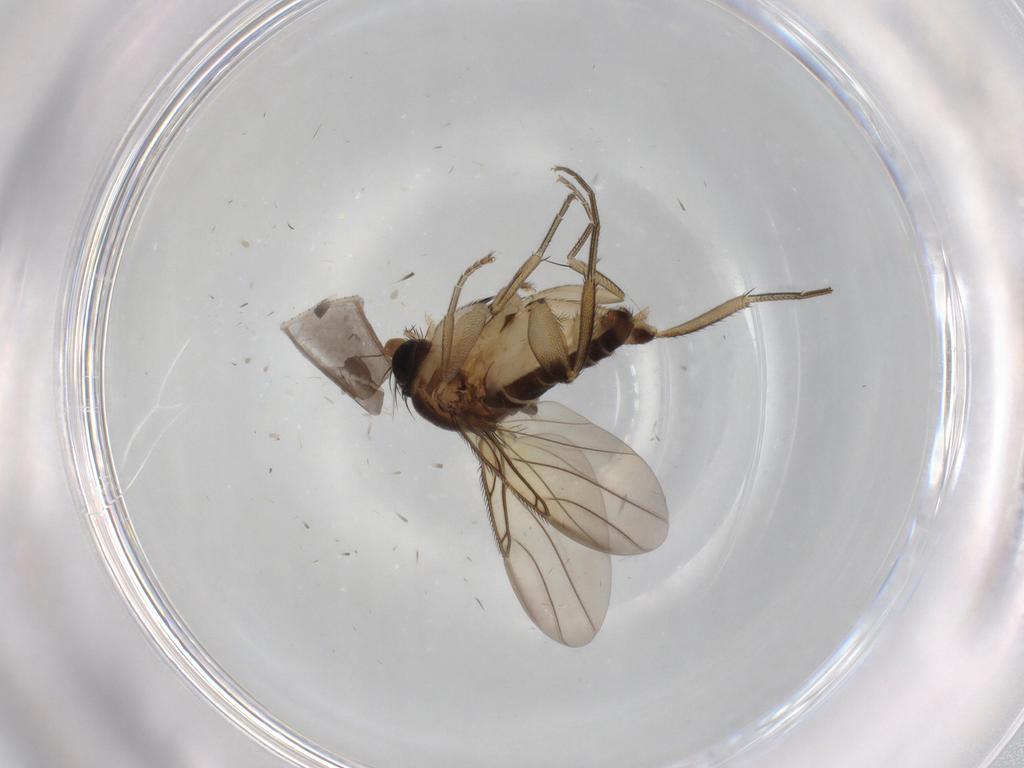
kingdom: Animalia
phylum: Arthropoda
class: Insecta
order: Diptera
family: Phoridae
